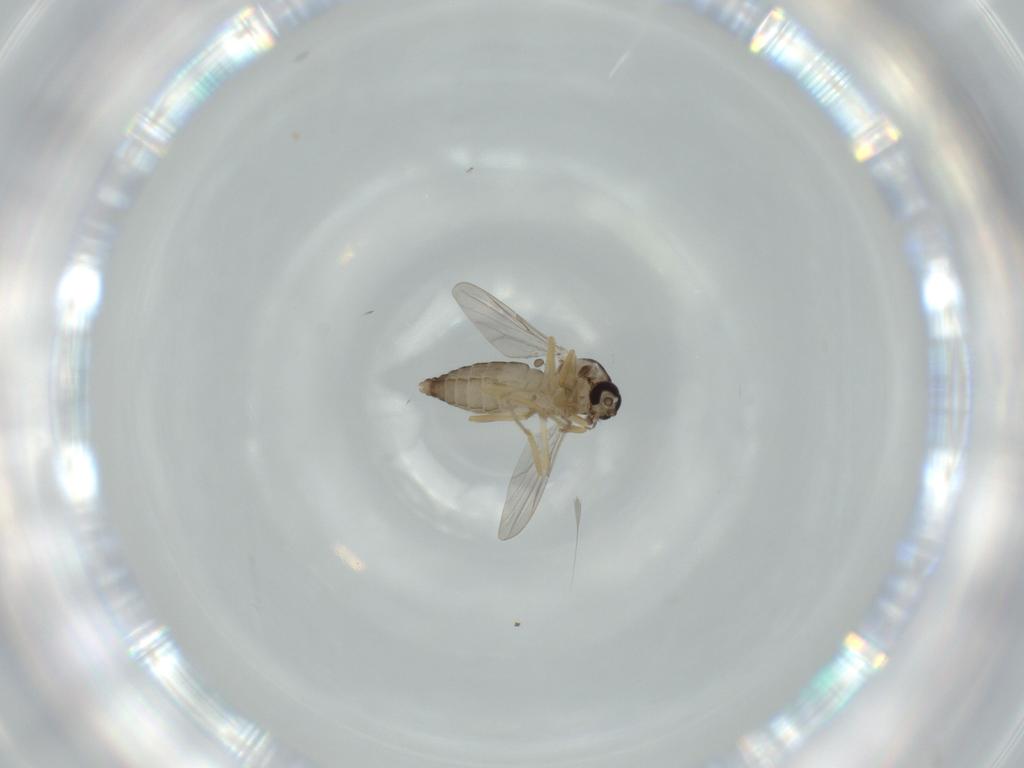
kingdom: Animalia
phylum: Arthropoda
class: Insecta
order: Diptera
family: Ceratopogonidae
